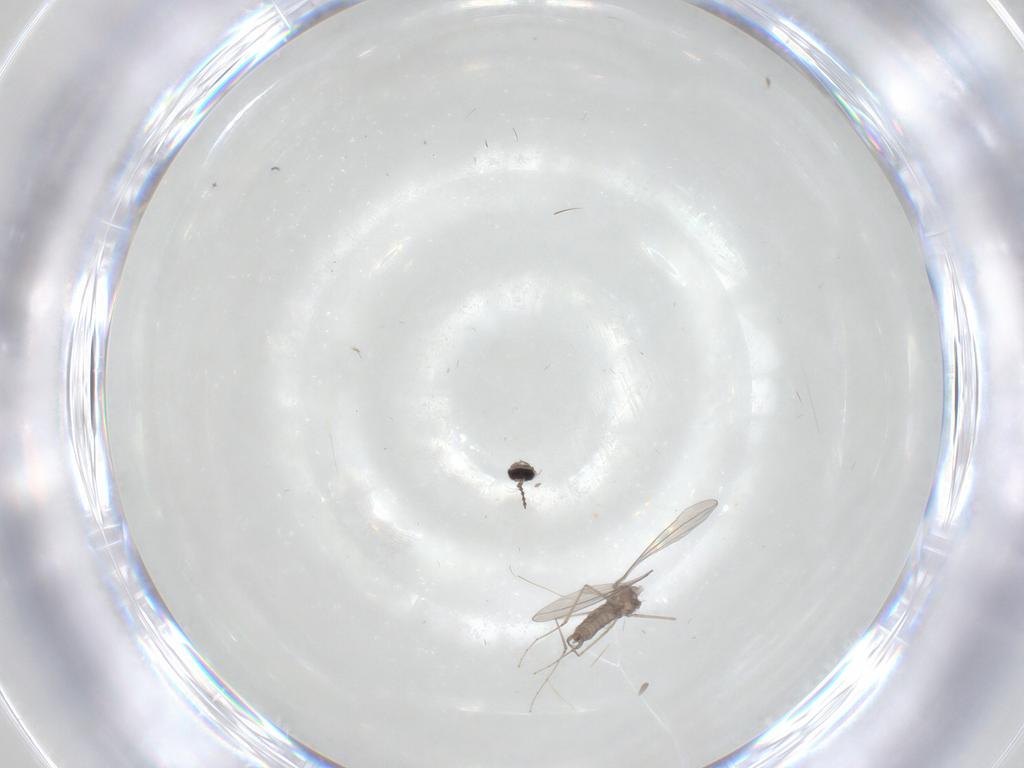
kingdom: Animalia
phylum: Arthropoda
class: Insecta
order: Diptera
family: Cecidomyiidae
